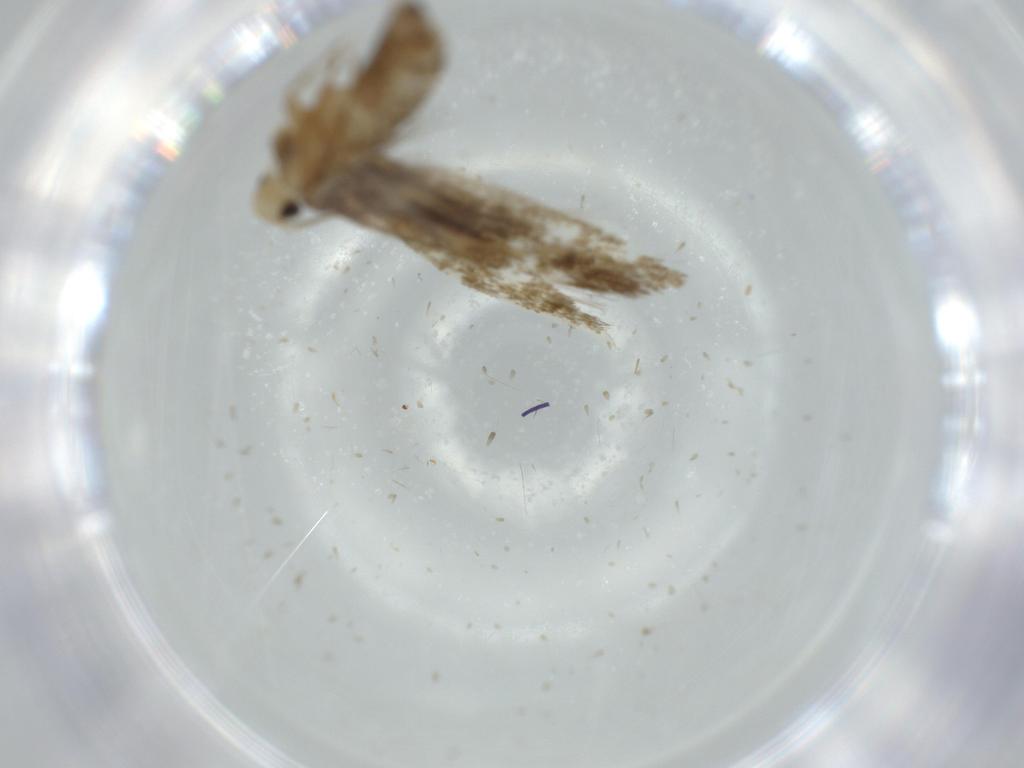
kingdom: Animalia
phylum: Arthropoda
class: Insecta
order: Lepidoptera
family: Tineidae
